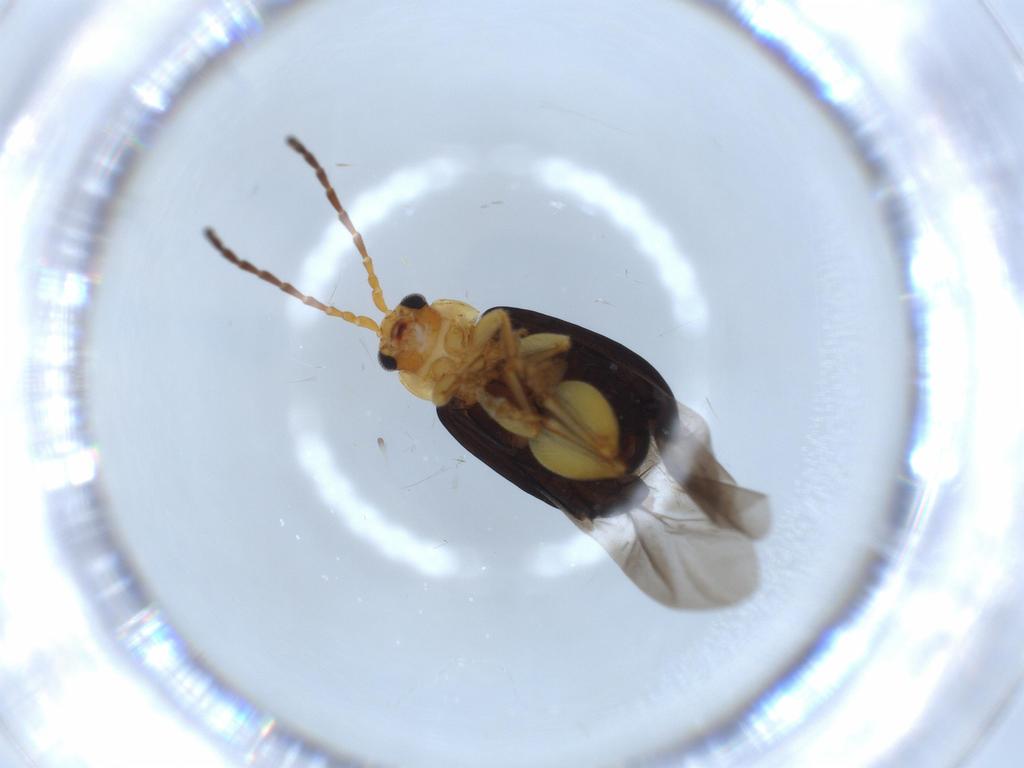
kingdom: Animalia
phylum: Arthropoda
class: Insecta
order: Coleoptera
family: Chrysomelidae
